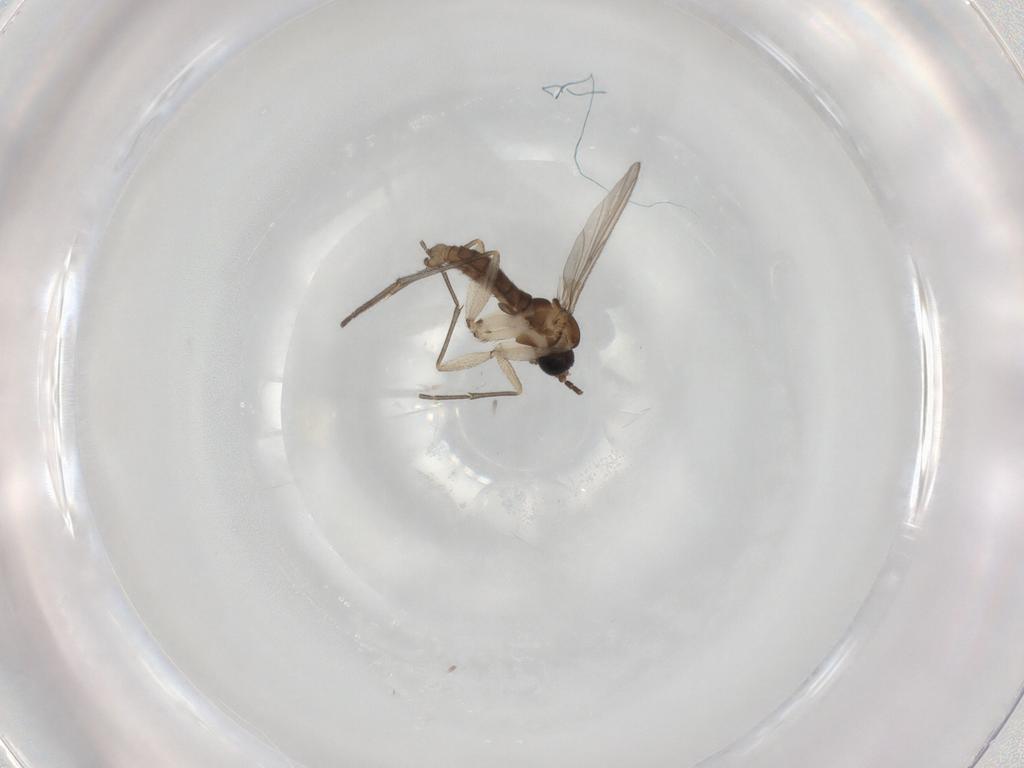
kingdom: Animalia
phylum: Arthropoda
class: Insecta
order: Diptera
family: Sciaridae
